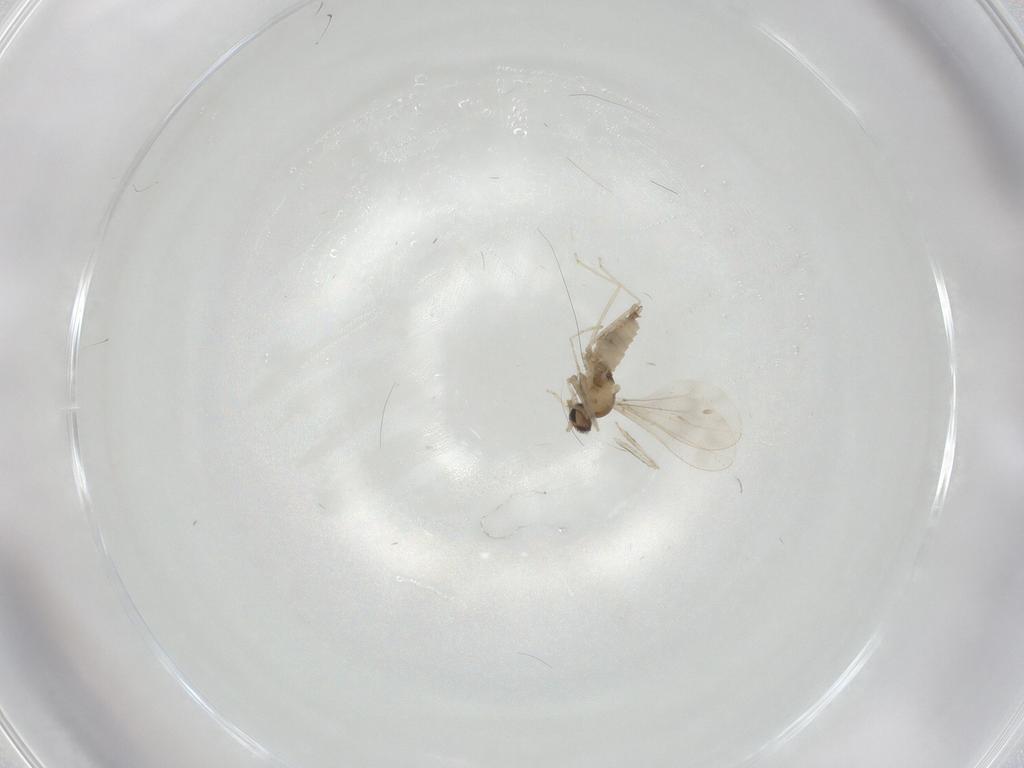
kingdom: Animalia
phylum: Arthropoda
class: Insecta
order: Diptera
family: Cecidomyiidae
